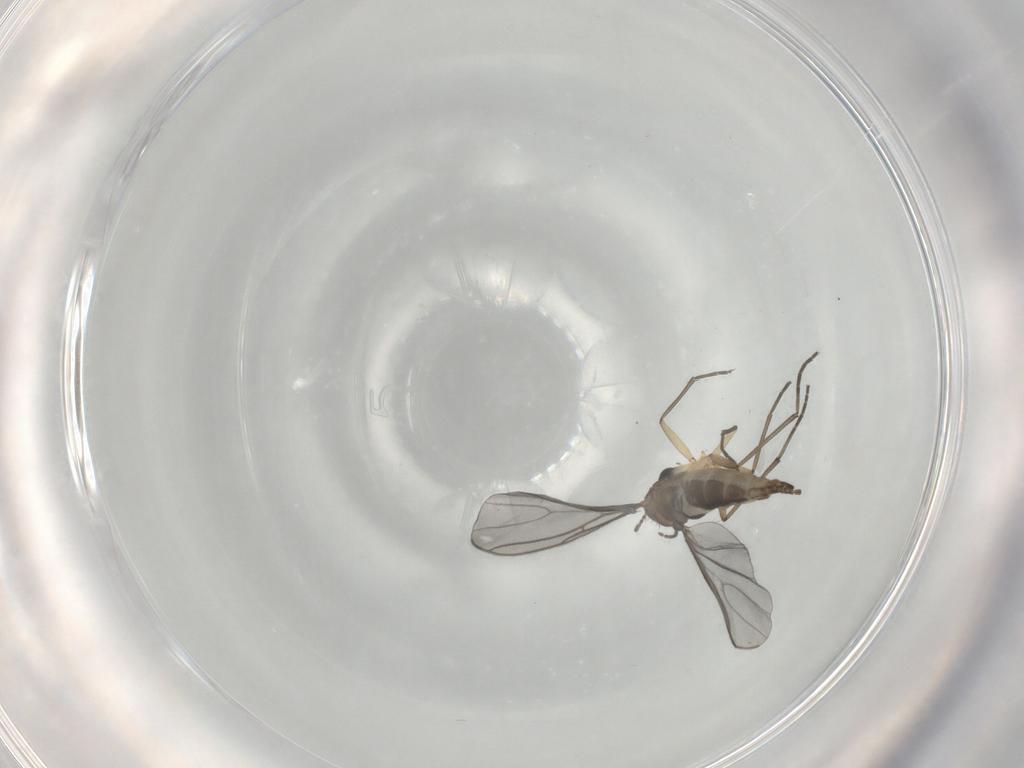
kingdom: Animalia
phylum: Arthropoda
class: Insecta
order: Diptera
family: Sciaridae
